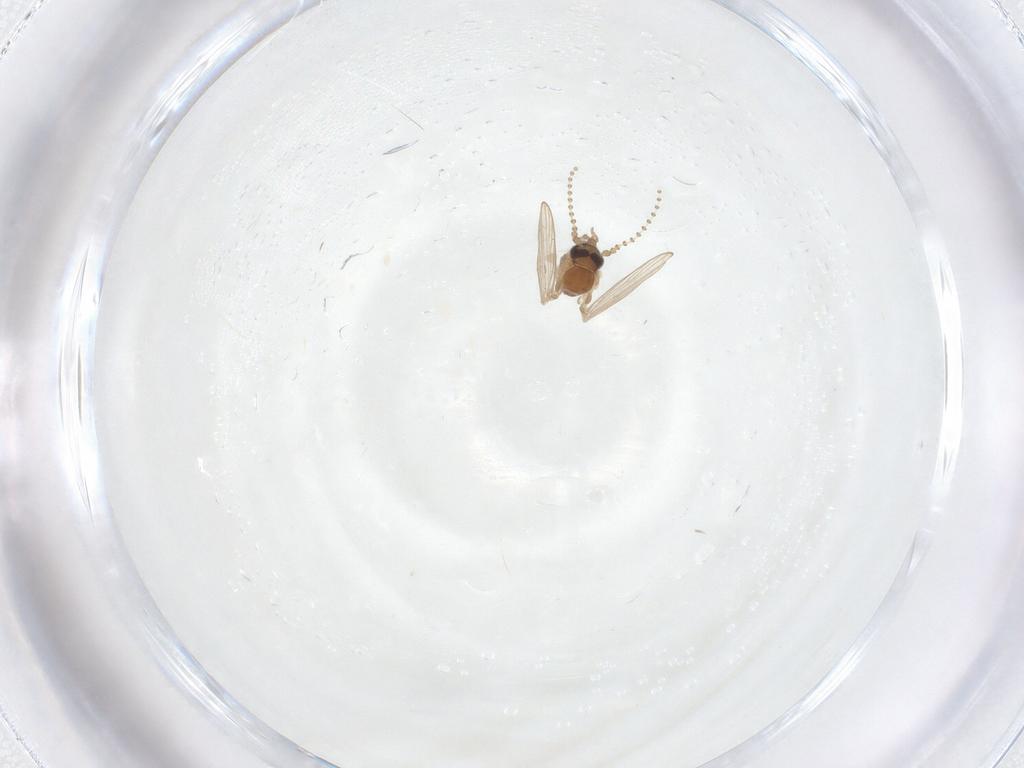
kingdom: Animalia
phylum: Arthropoda
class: Insecta
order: Diptera
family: Psychodidae
